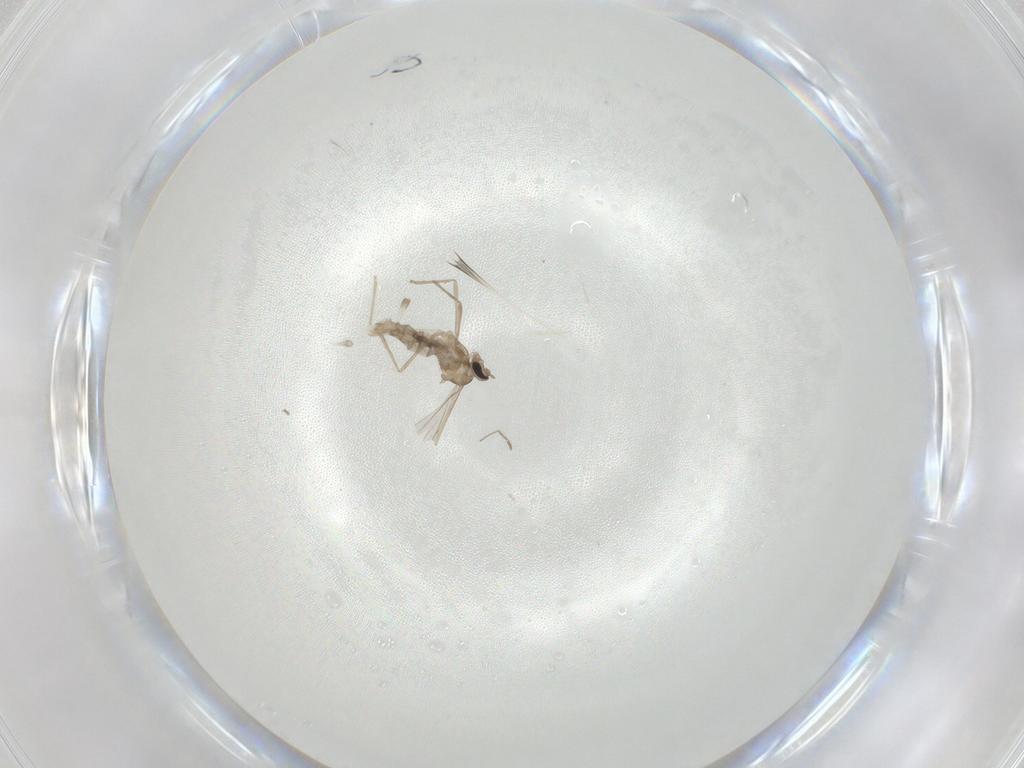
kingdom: Animalia
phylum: Arthropoda
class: Insecta
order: Diptera
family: Cecidomyiidae
